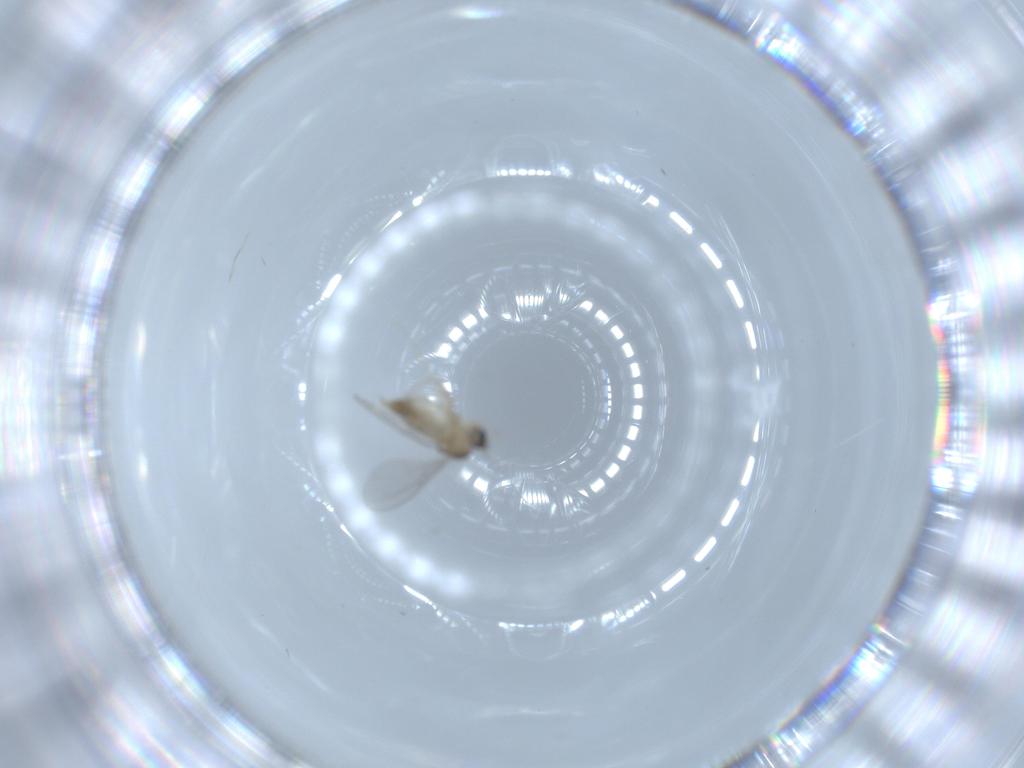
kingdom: Animalia
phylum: Arthropoda
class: Insecta
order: Diptera
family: Cecidomyiidae
